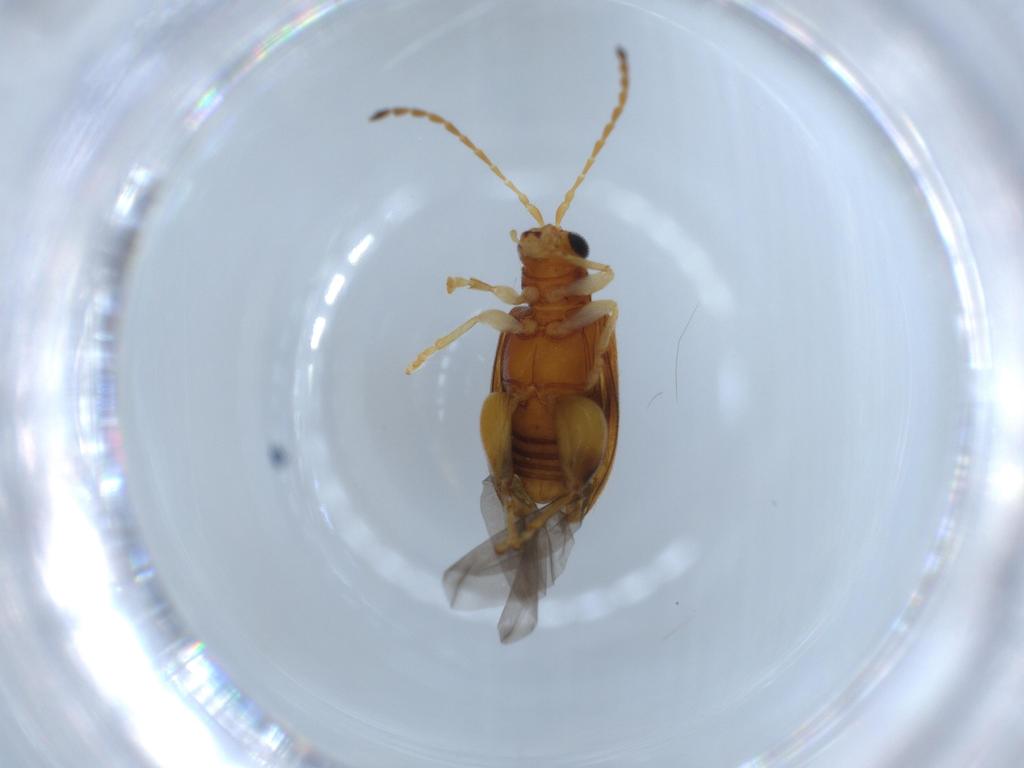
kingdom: Animalia
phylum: Arthropoda
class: Insecta
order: Coleoptera
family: Chrysomelidae
